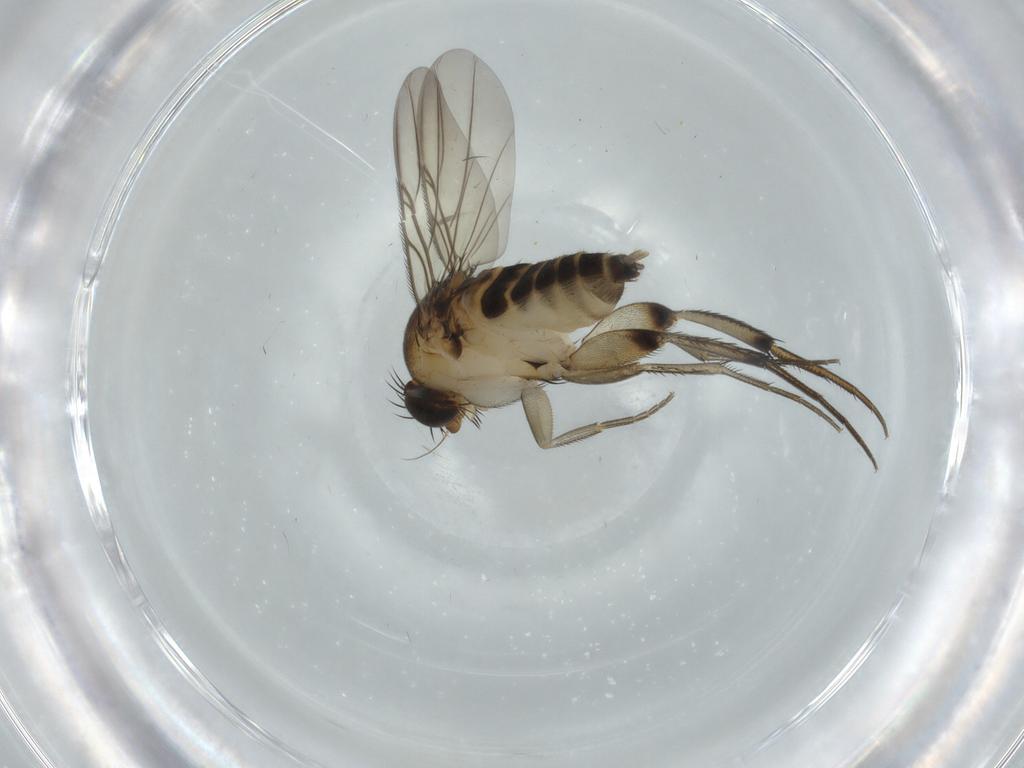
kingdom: Animalia
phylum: Arthropoda
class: Insecta
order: Diptera
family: Phoridae
